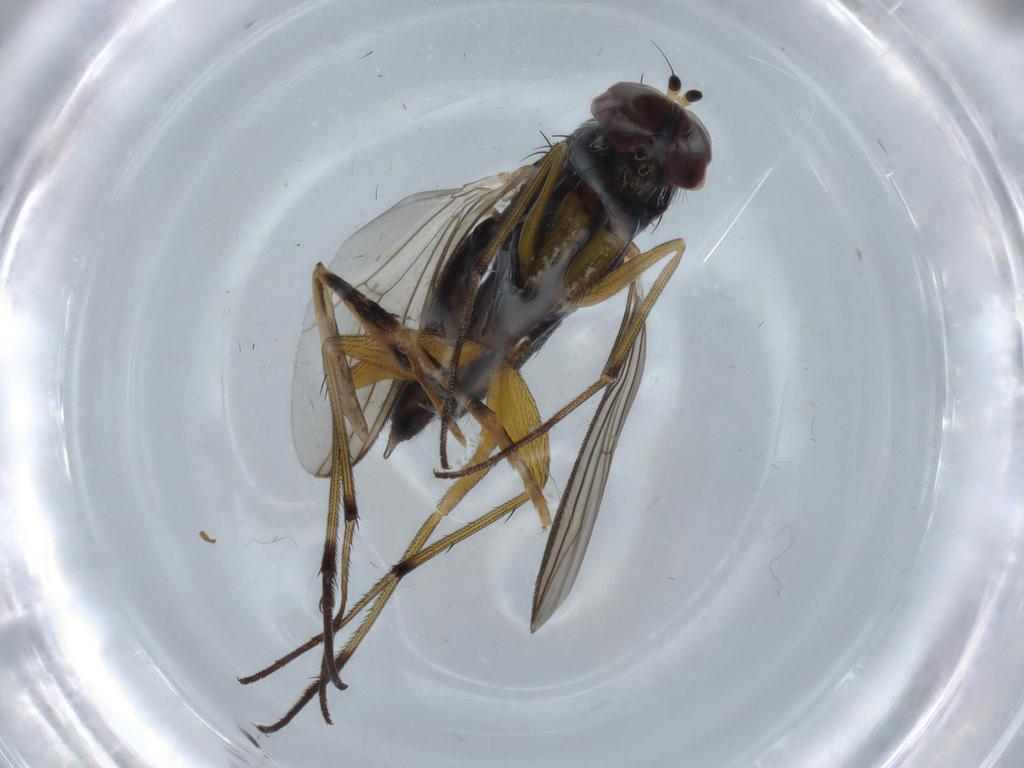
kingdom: Animalia
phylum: Arthropoda
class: Insecta
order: Diptera
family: Dolichopodidae
